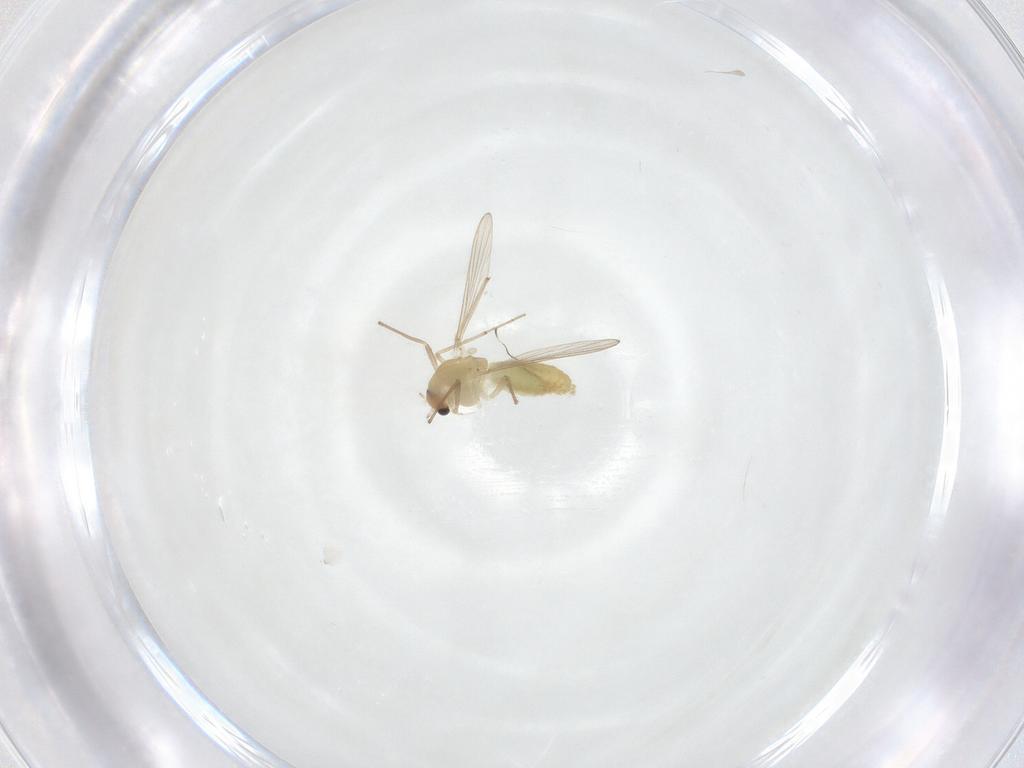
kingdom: Animalia
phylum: Arthropoda
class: Insecta
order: Diptera
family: Chironomidae
